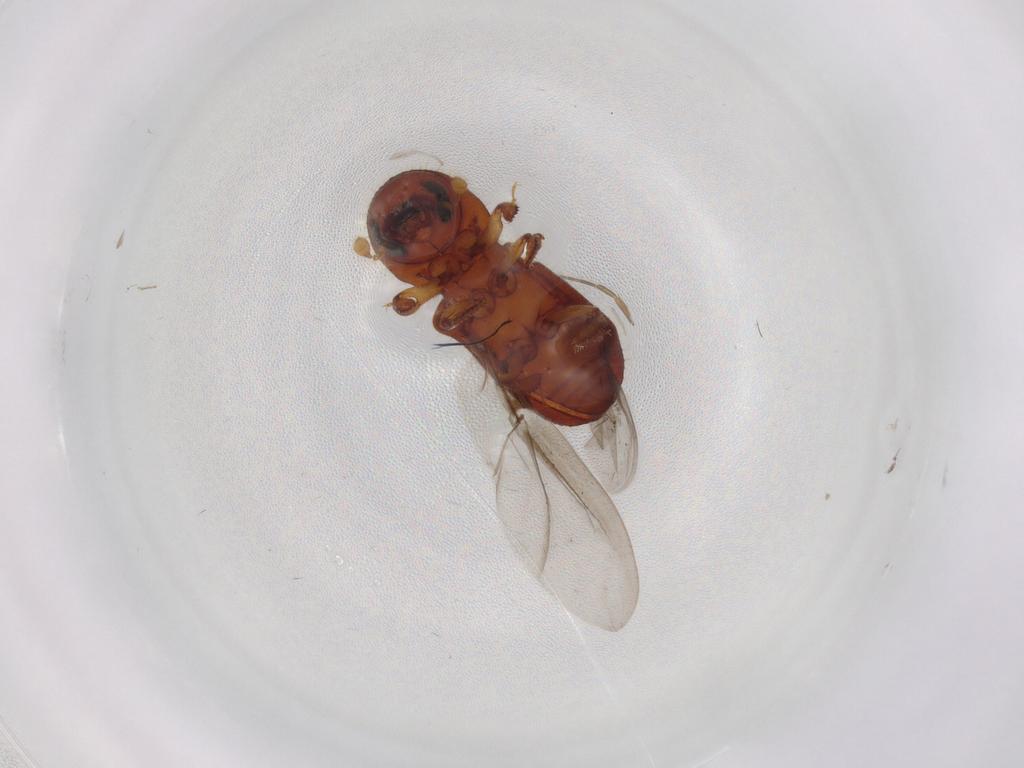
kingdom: Animalia
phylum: Arthropoda
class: Insecta
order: Coleoptera
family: Curculionidae
